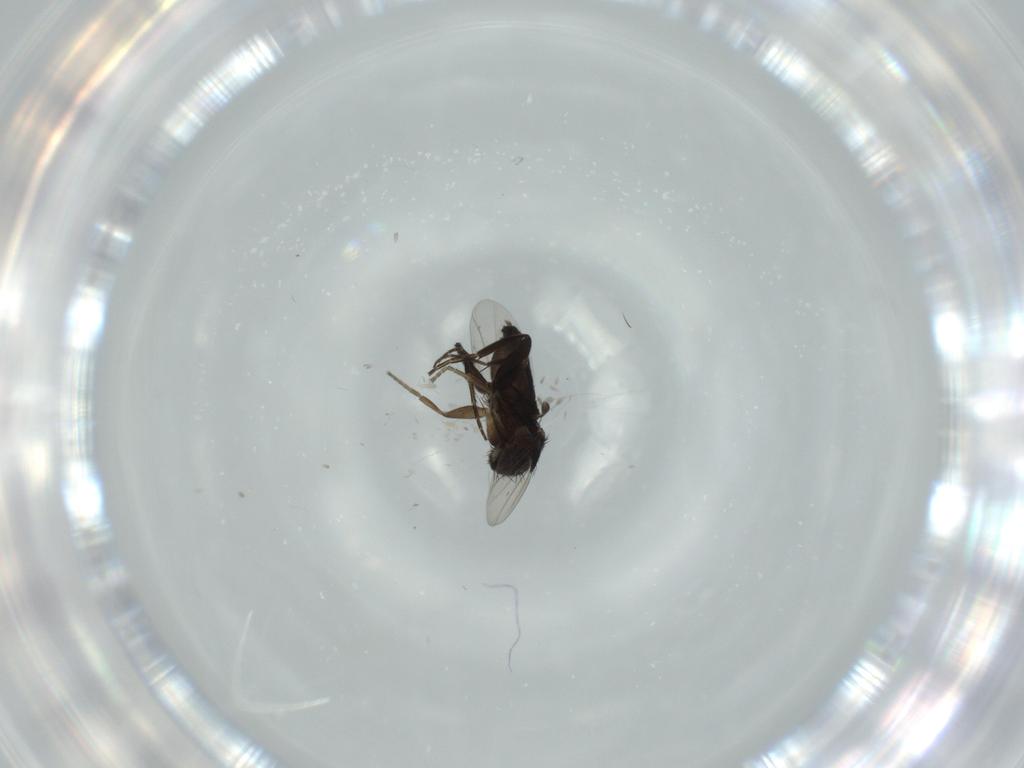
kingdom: Animalia
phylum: Arthropoda
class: Insecta
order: Diptera
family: Phoridae
